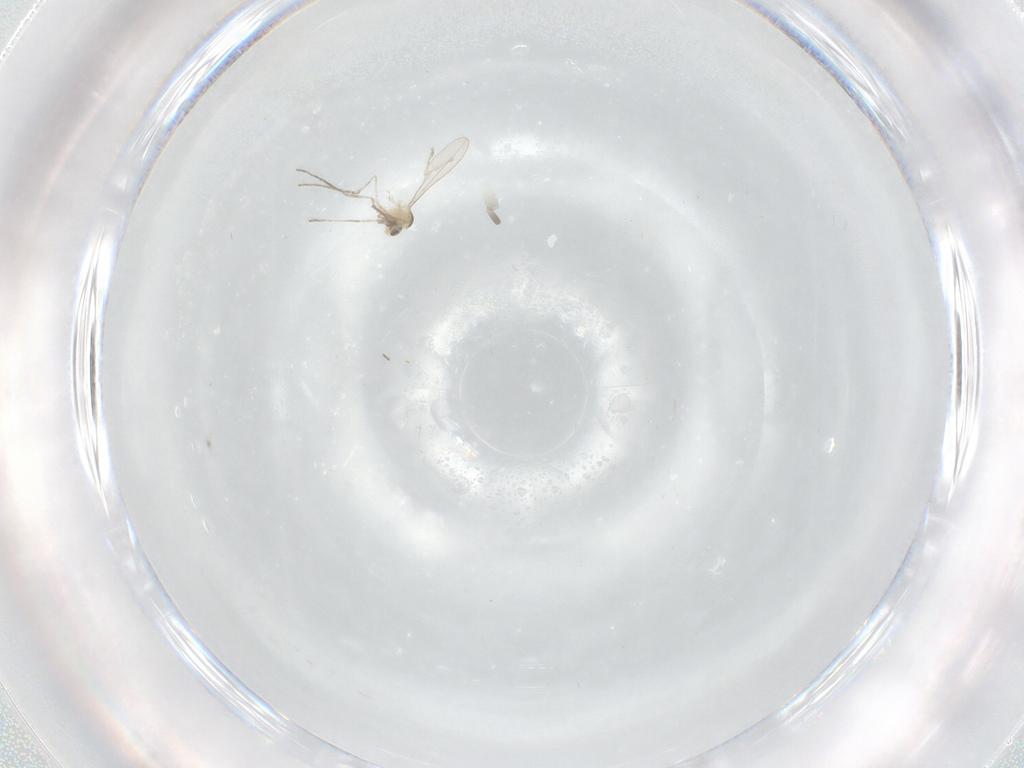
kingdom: Animalia
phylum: Arthropoda
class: Insecta
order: Diptera
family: Cecidomyiidae
